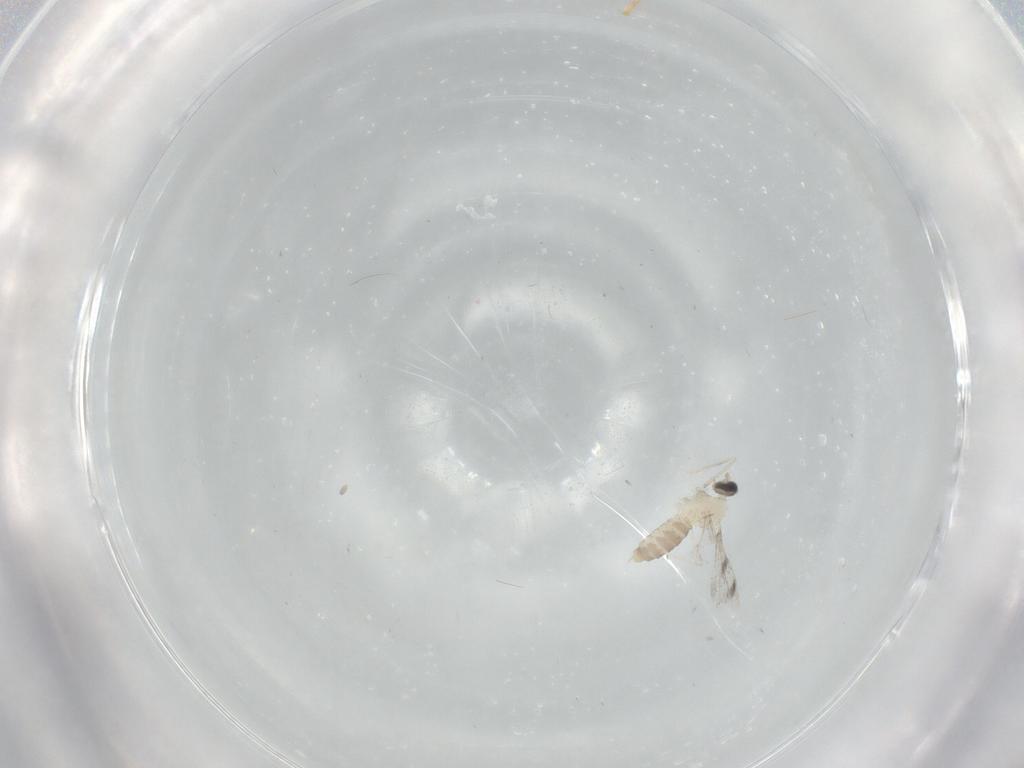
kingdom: Animalia
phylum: Arthropoda
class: Insecta
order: Diptera
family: Cecidomyiidae
